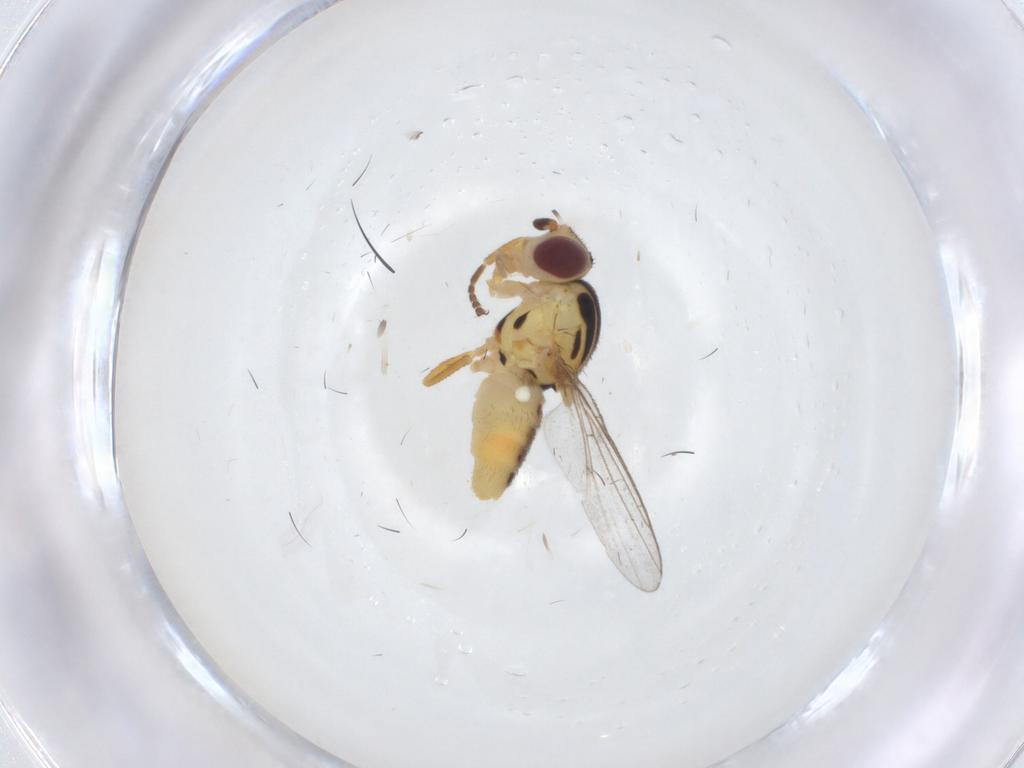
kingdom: Animalia
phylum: Arthropoda
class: Insecta
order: Diptera
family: Chloropidae
